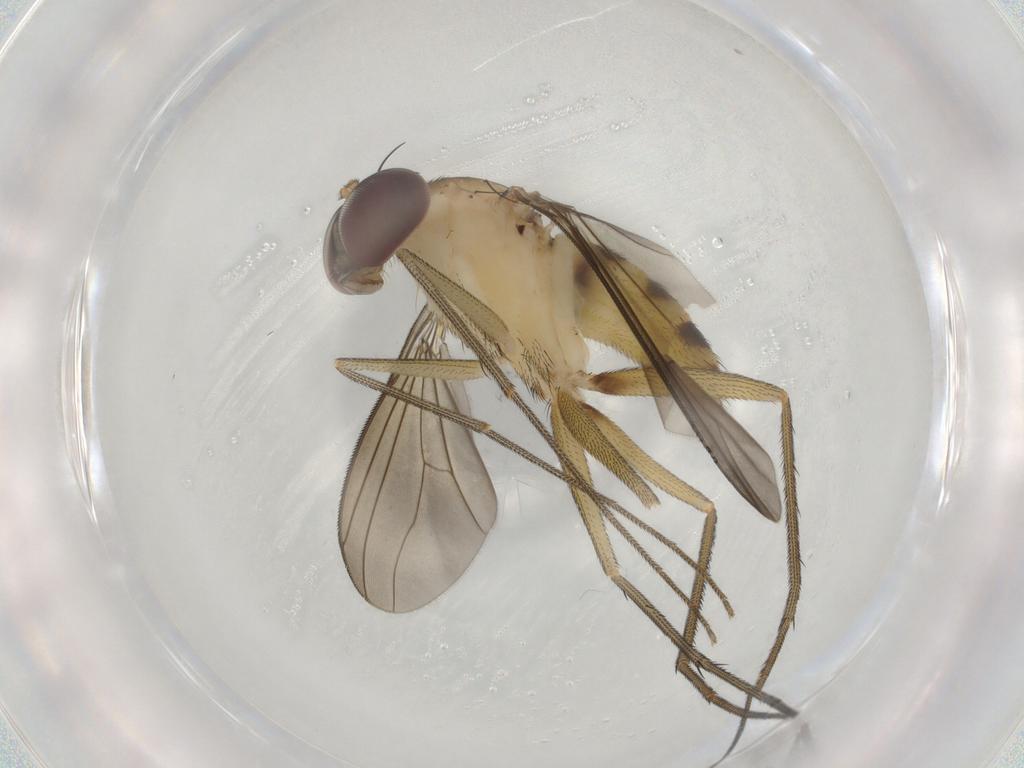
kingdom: Animalia
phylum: Arthropoda
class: Insecta
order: Diptera
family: Dolichopodidae
